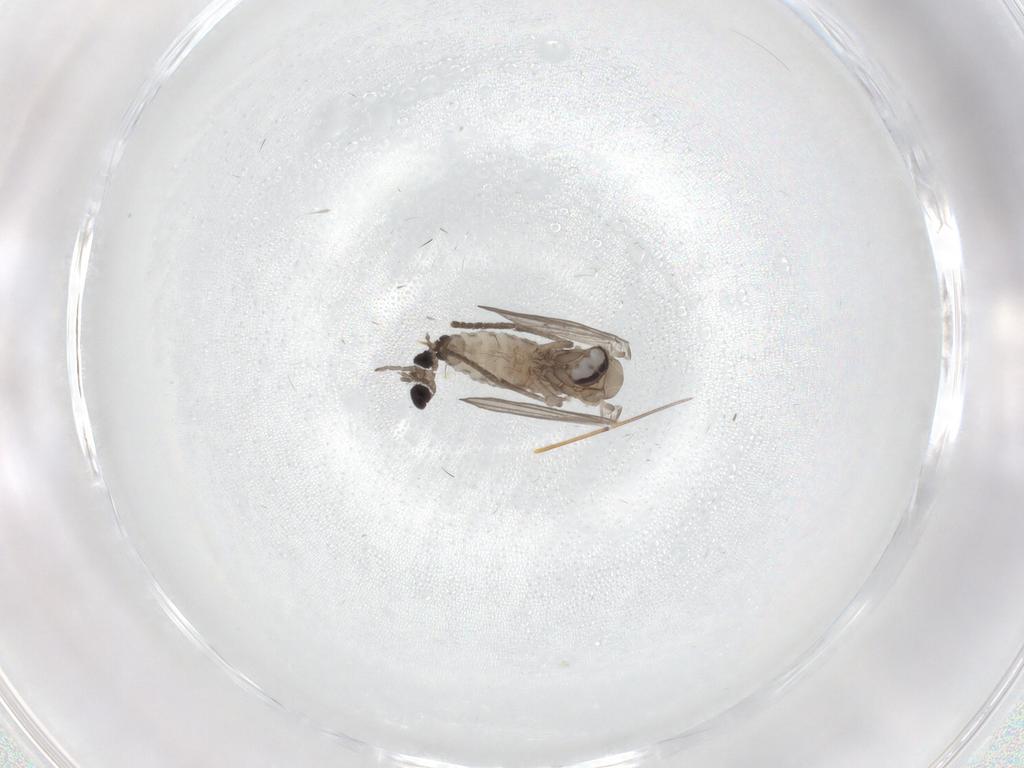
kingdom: Animalia
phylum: Arthropoda
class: Insecta
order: Diptera
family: Psychodidae
